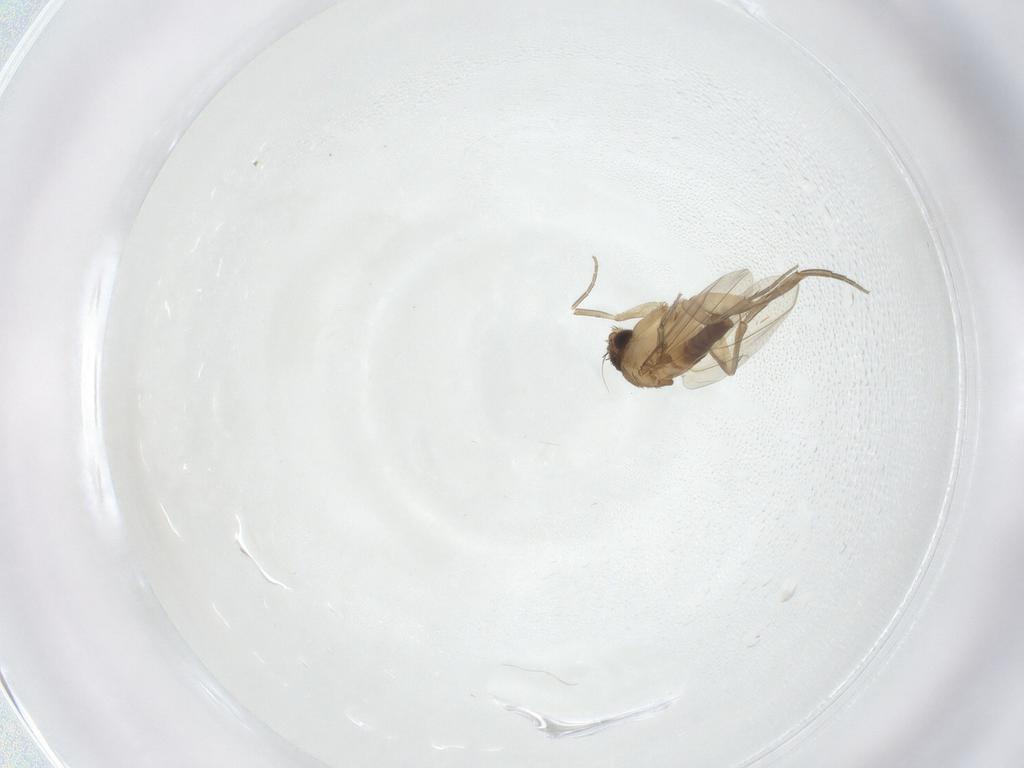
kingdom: Animalia
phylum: Arthropoda
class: Insecta
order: Diptera
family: Phoridae
